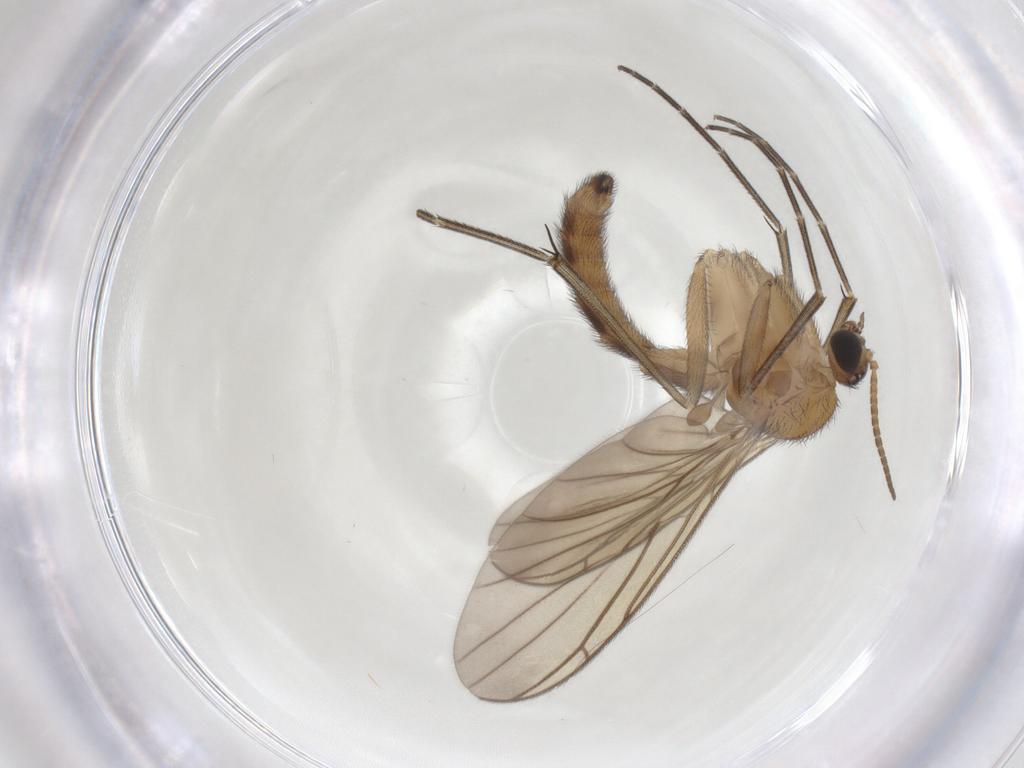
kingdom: Animalia
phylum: Arthropoda
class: Insecta
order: Diptera
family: Keroplatidae
